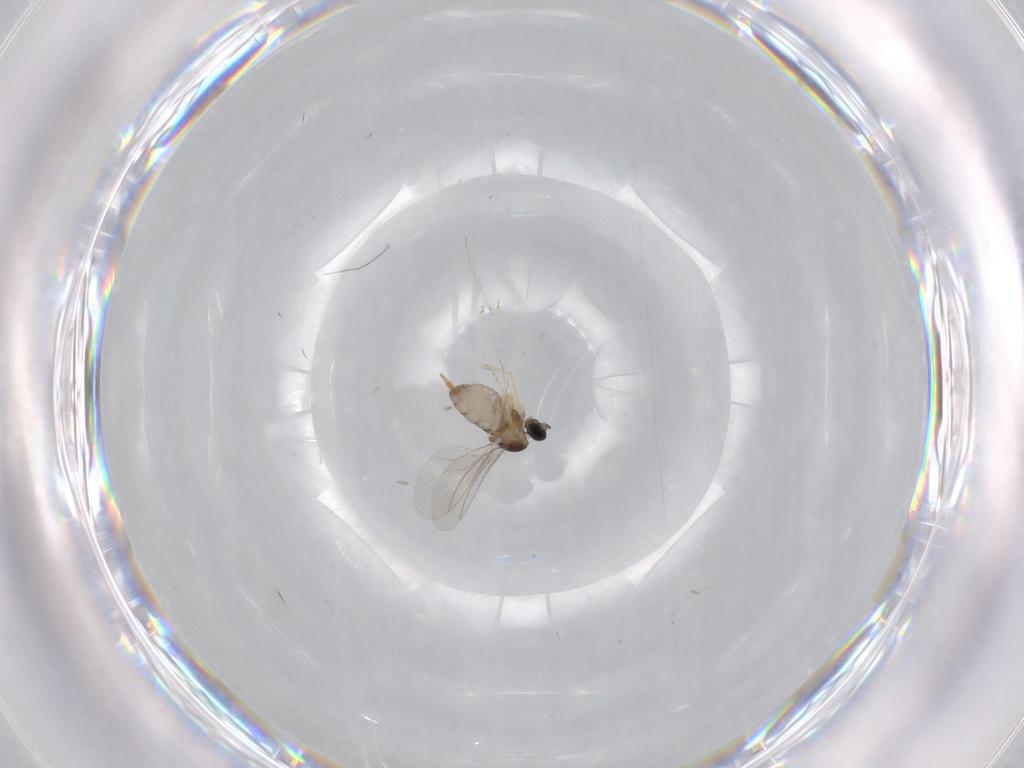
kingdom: Animalia
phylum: Arthropoda
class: Insecta
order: Diptera
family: Cecidomyiidae
